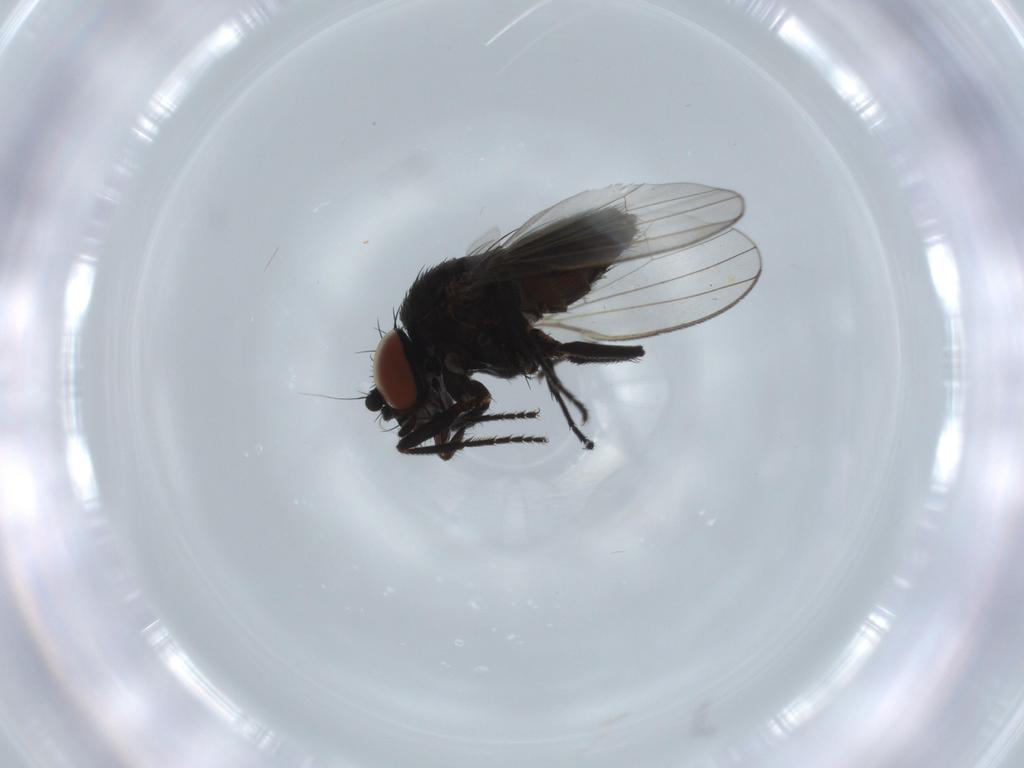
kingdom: Animalia
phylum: Arthropoda
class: Insecta
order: Diptera
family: Milichiidae
